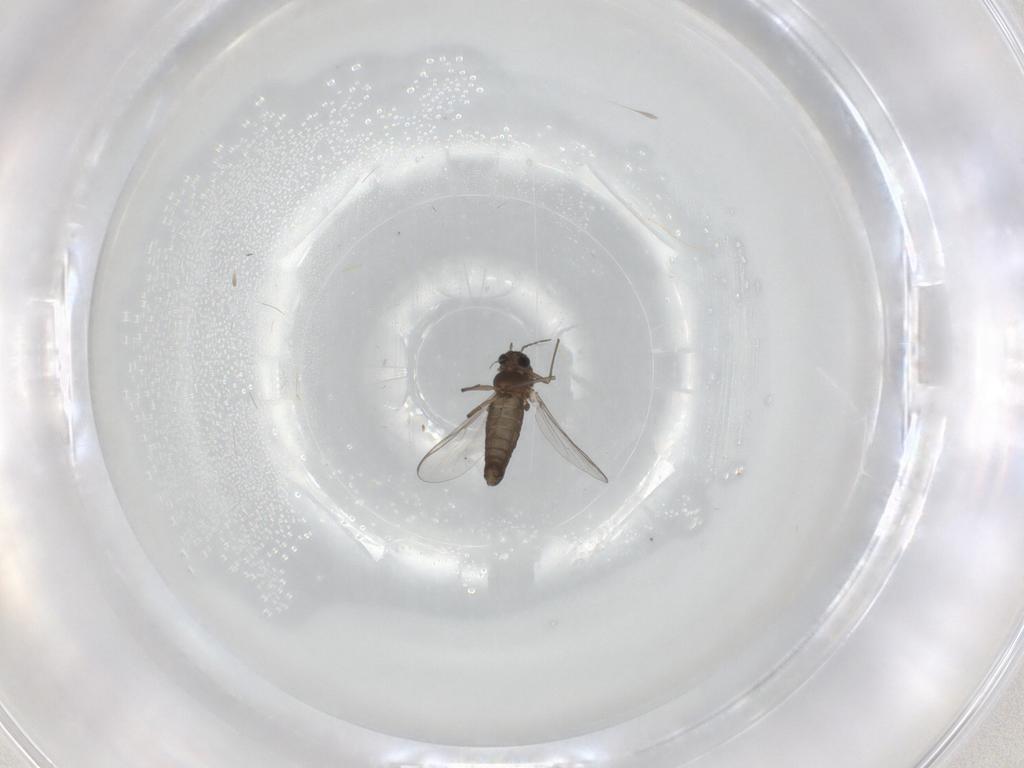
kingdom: Animalia
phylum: Arthropoda
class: Insecta
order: Diptera
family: Chironomidae
